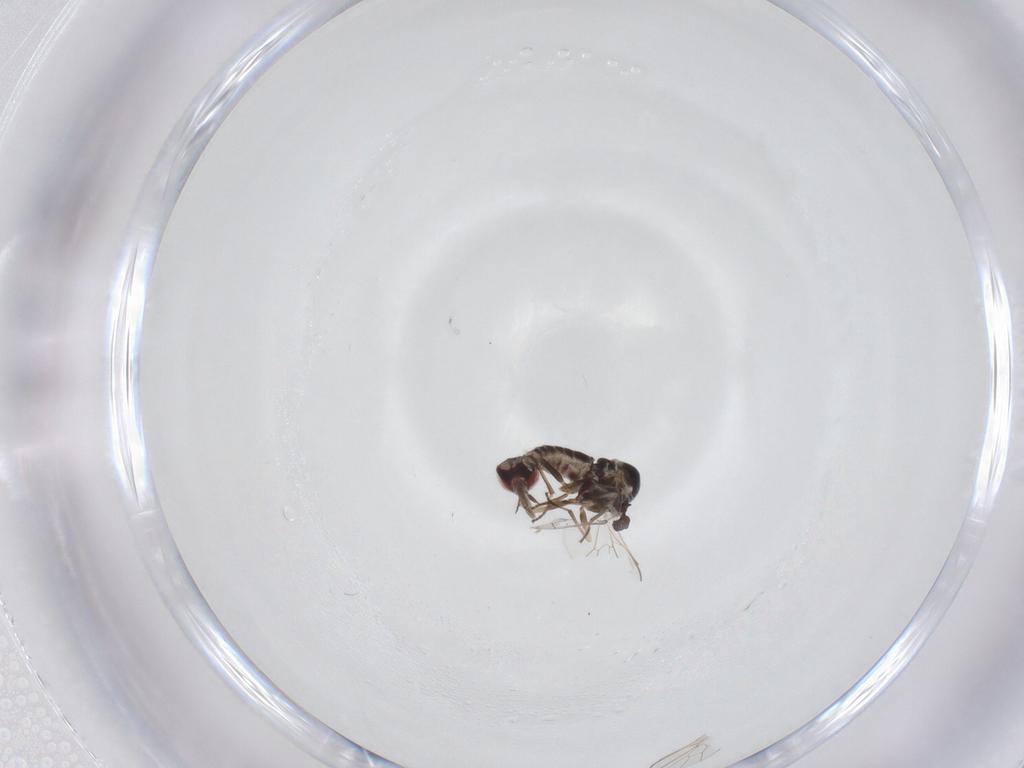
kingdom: Animalia
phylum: Arthropoda
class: Insecta
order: Diptera
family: Mythicomyiidae
